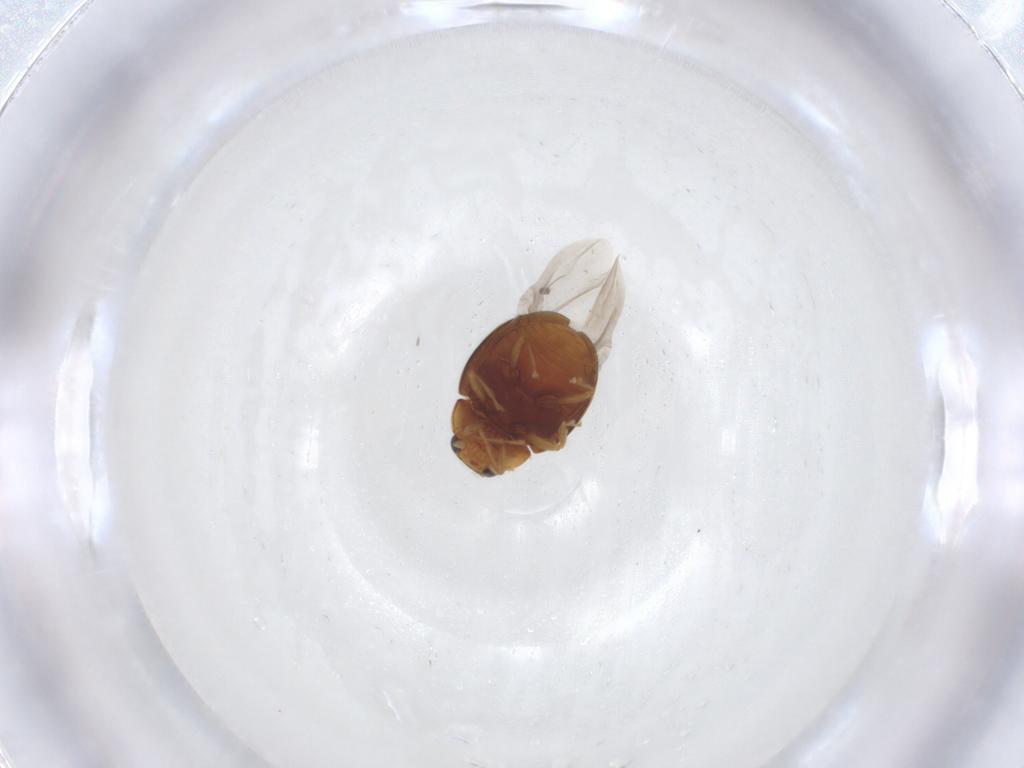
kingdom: Animalia
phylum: Arthropoda
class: Insecta
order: Coleoptera
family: Coccinellidae
